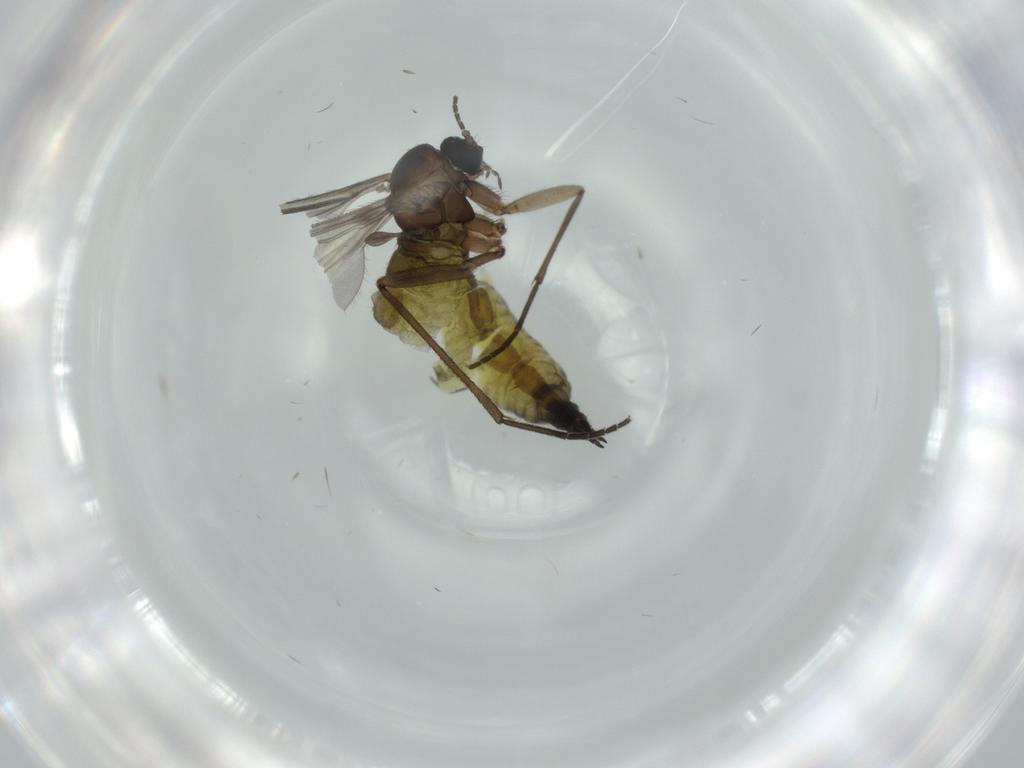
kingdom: Animalia
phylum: Arthropoda
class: Insecta
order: Diptera
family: Sciaridae
